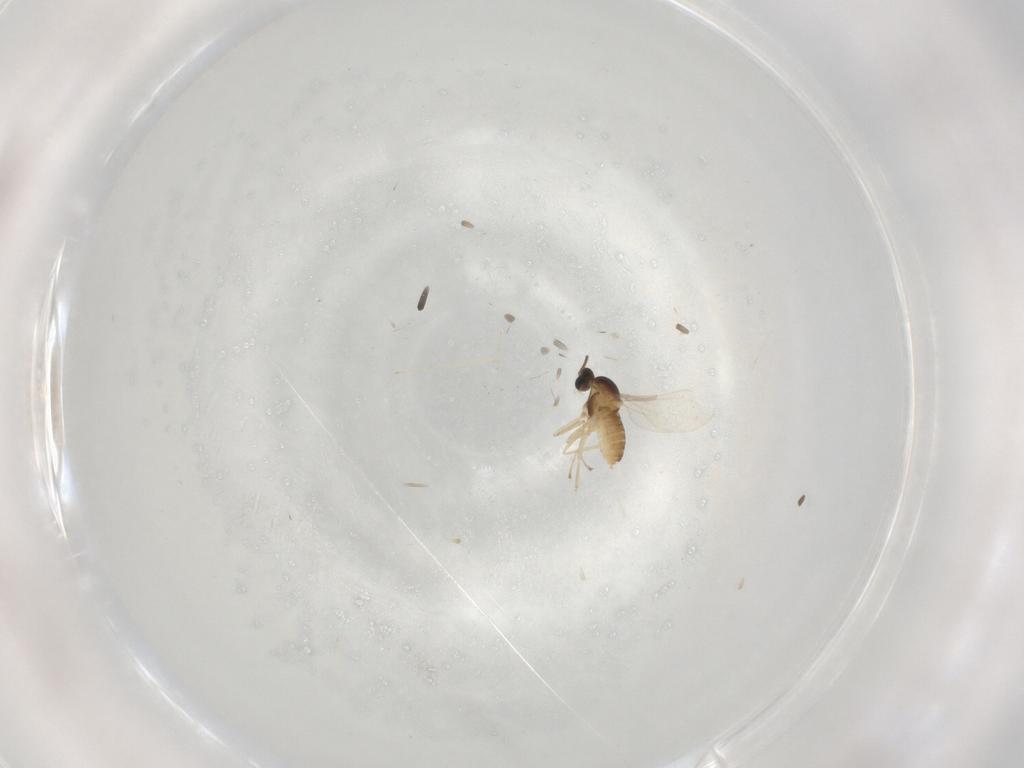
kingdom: Animalia
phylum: Arthropoda
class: Insecta
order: Diptera
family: Cecidomyiidae
